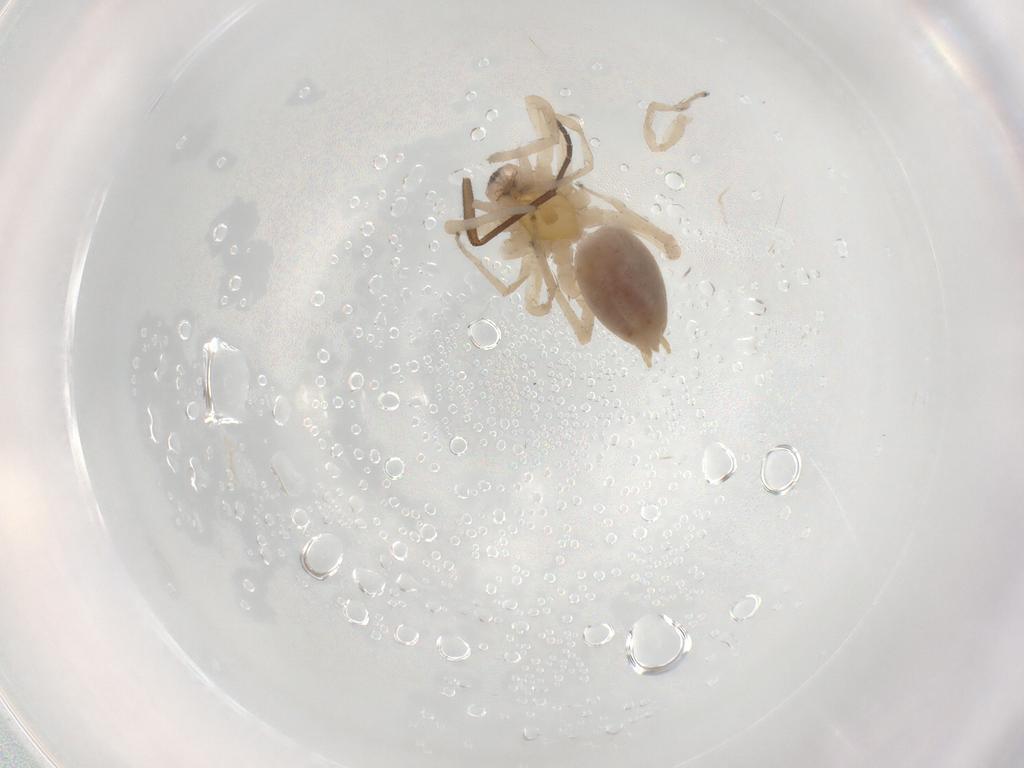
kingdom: Animalia
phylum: Arthropoda
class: Arachnida
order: Araneae
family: Anyphaenidae
